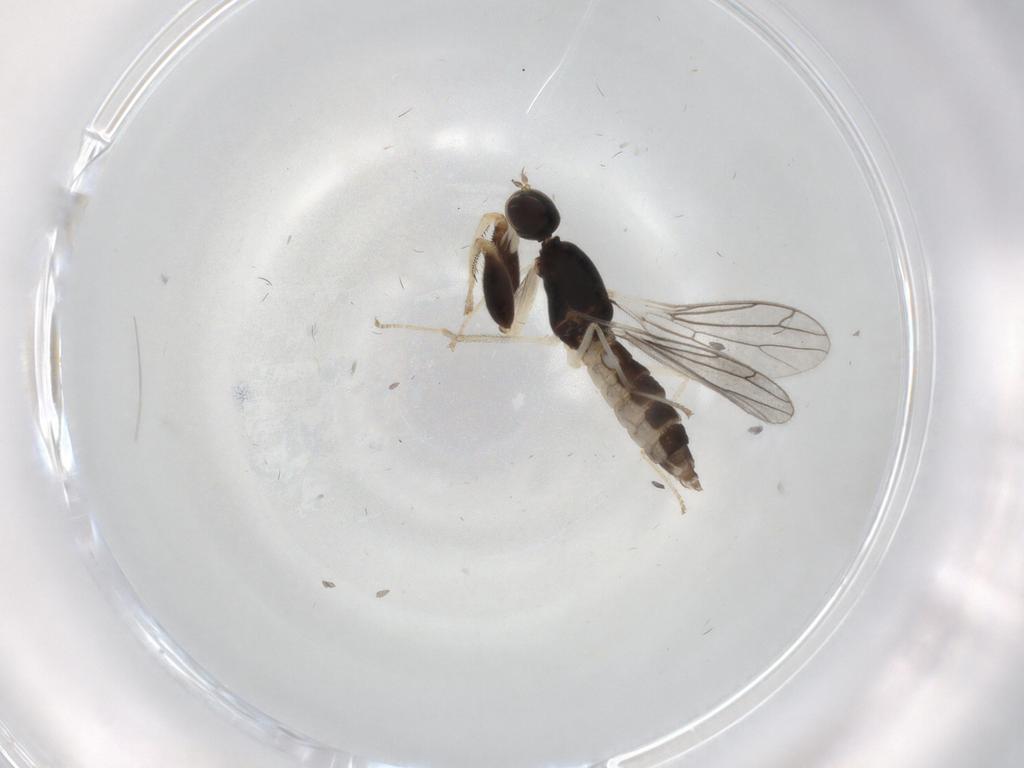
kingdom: Animalia
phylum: Arthropoda
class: Insecta
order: Diptera
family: Empididae
